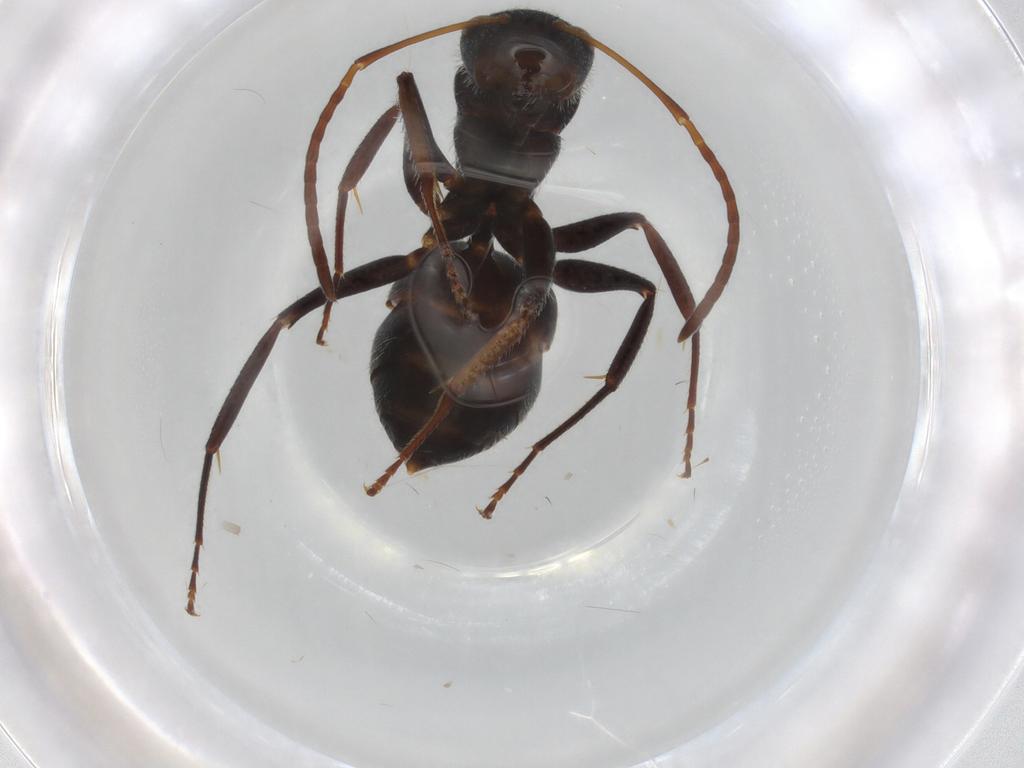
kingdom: Animalia
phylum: Arthropoda
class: Insecta
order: Hymenoptera
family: Formicidae
